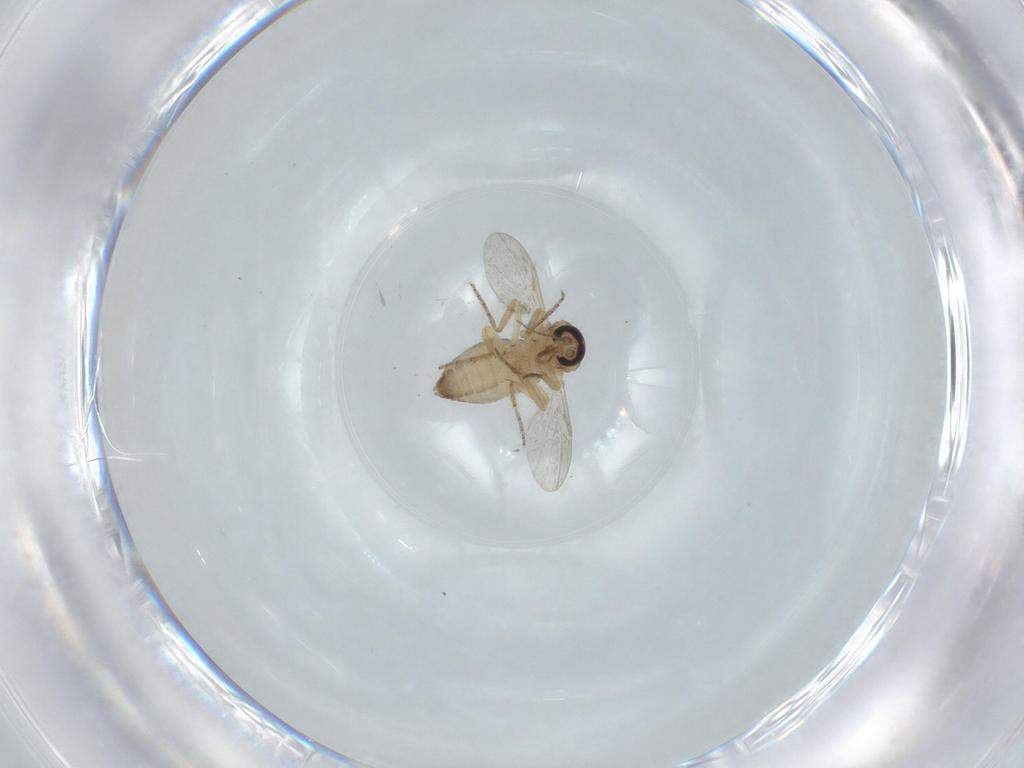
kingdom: Animalia
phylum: Arthropoda
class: Insecta
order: Diptera
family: Ceratopogonidae
